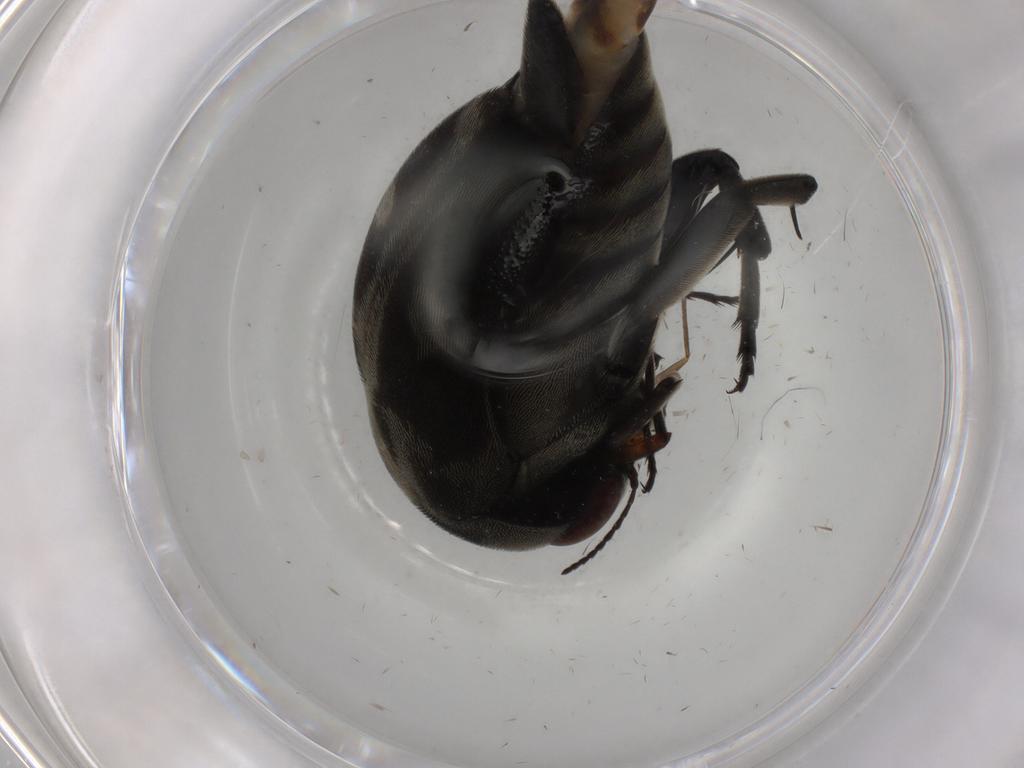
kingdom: Animalia
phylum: Arthropoda
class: Insecta
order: Coleoptera
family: Mordellidae
